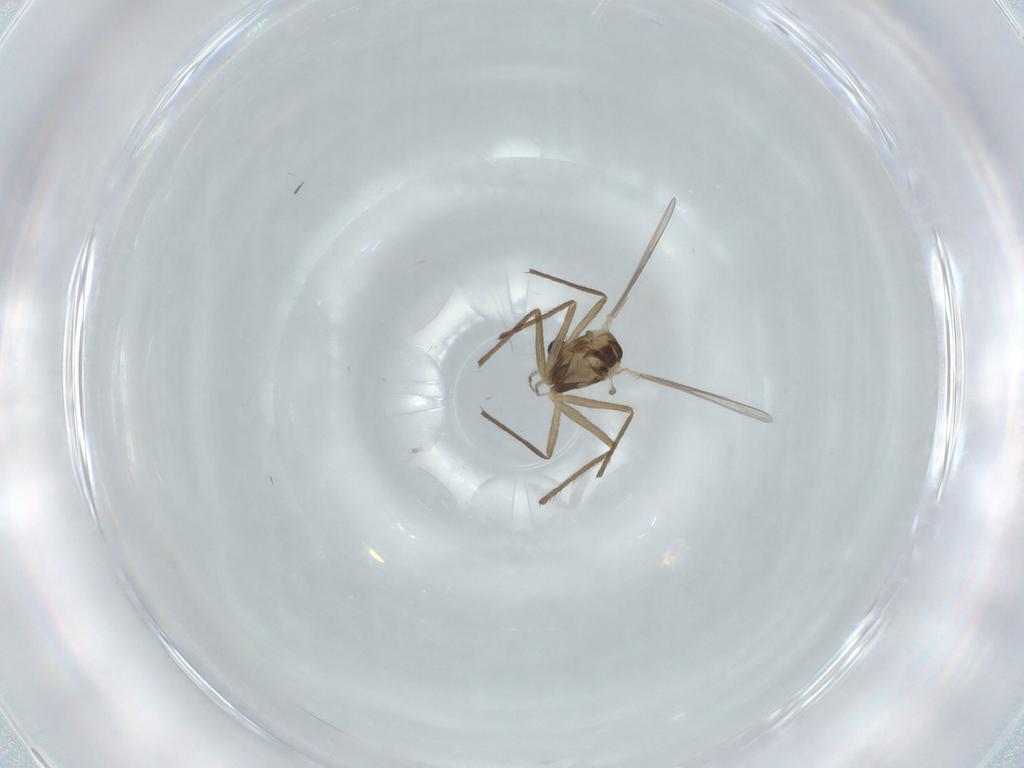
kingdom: Animalia
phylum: Arthropoda
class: Insecta
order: Diptera
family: Chironomidae
